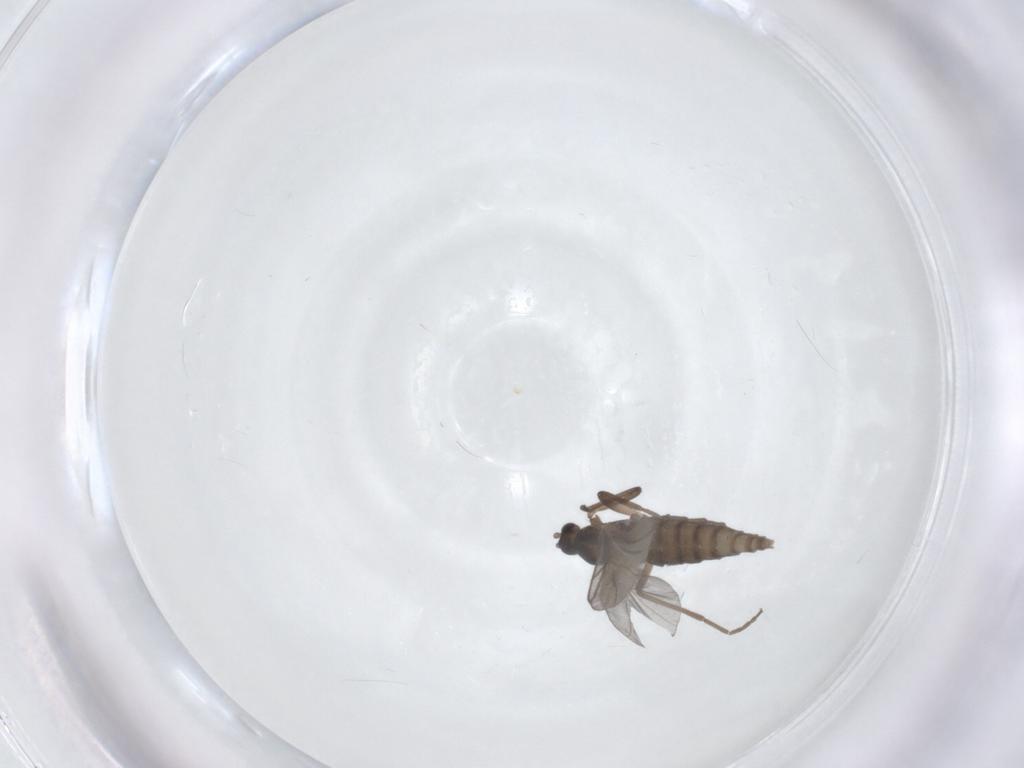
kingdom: Animalia
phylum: Arthropoda
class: Insecta
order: Diptera
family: Cecidomyiidae
